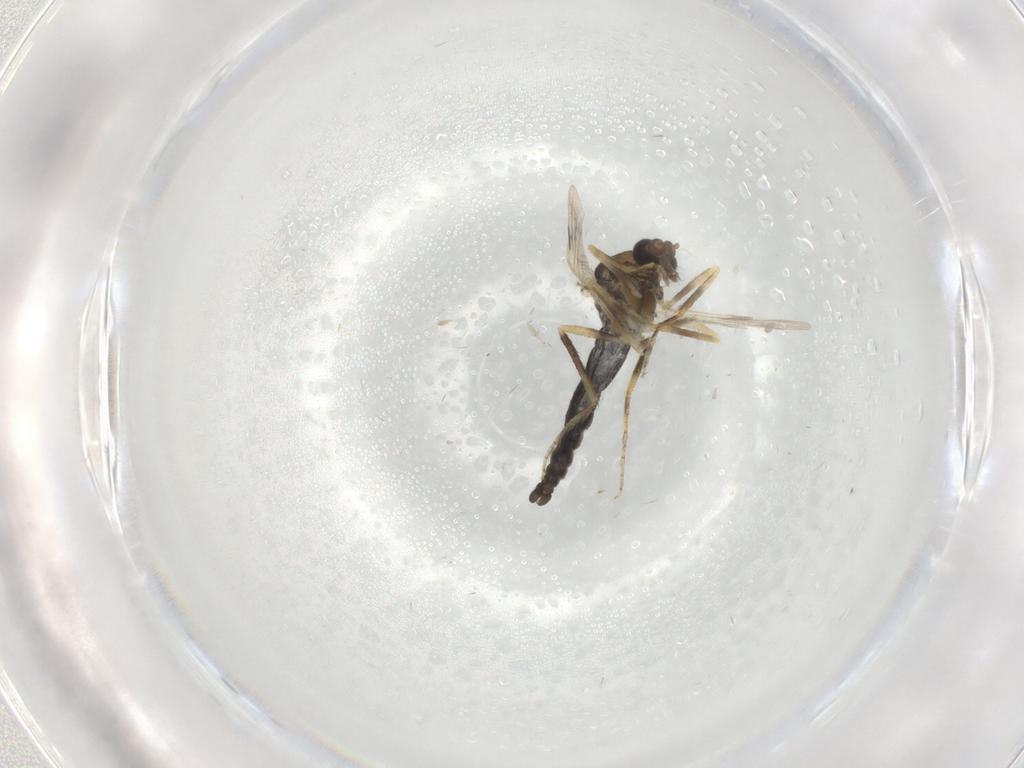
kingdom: Animalia
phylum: Arthropoda
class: Insecta
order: Diptera
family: Ceratopogonidae
